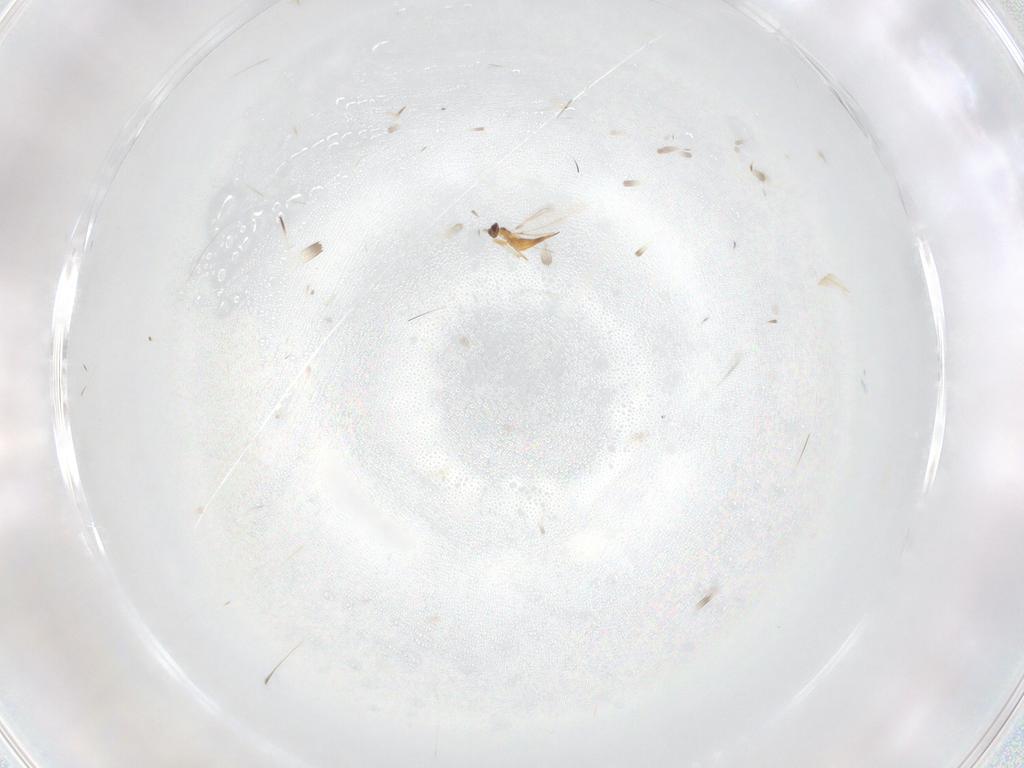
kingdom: Animalia
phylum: Arthropoda
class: Insecta
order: Hymenoptera
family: Mymaridae
